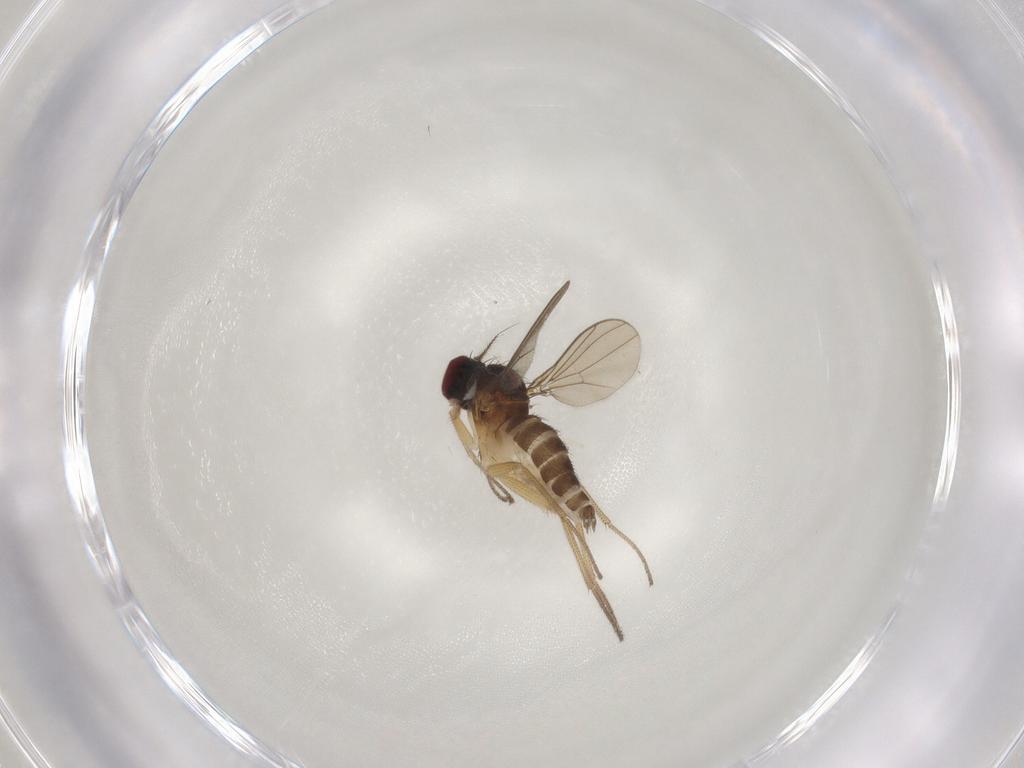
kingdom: Animalia
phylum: Arthropoda
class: Insecta
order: Diptera
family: Dolichopodidae
